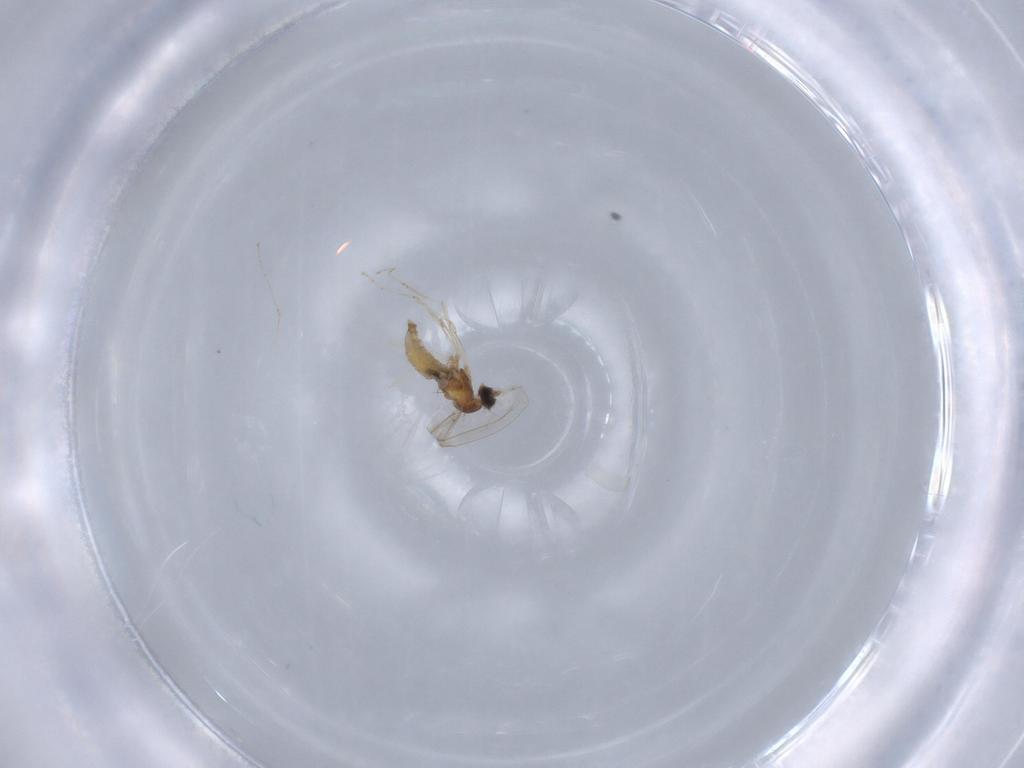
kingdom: Animalia
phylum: Arthropoda
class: Insecta
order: Diptera
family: Cecidomyiidae
